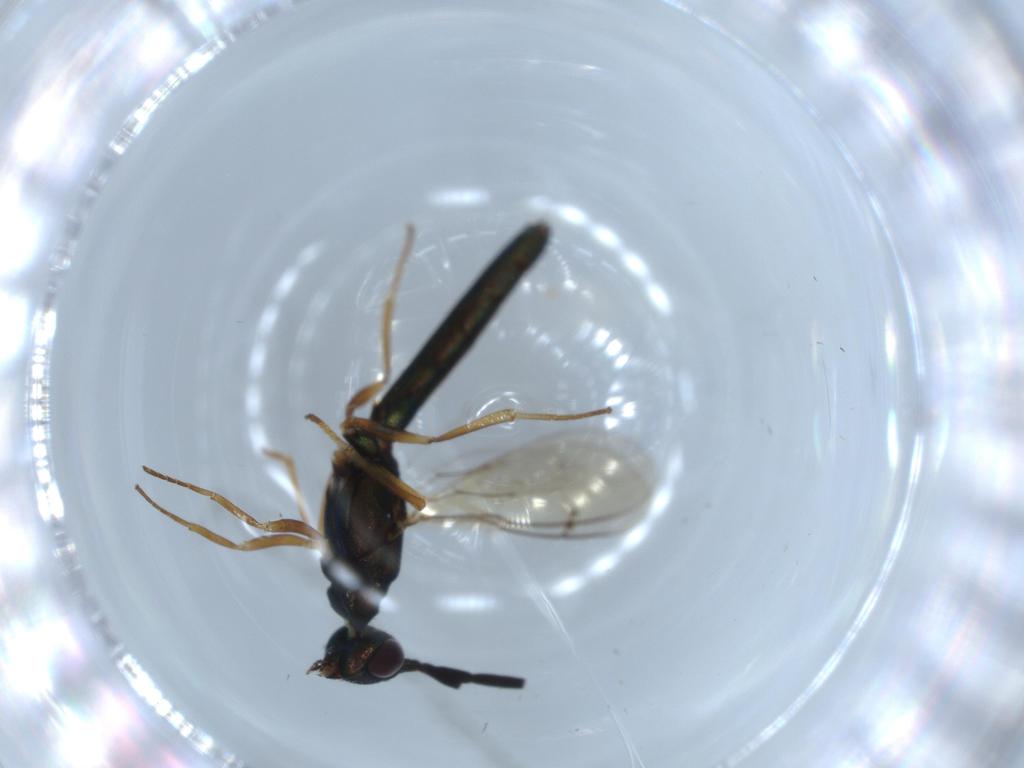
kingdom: Animalia
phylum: Arthropoda
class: Insecta
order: Hymenoptera
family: Eupelmidae
